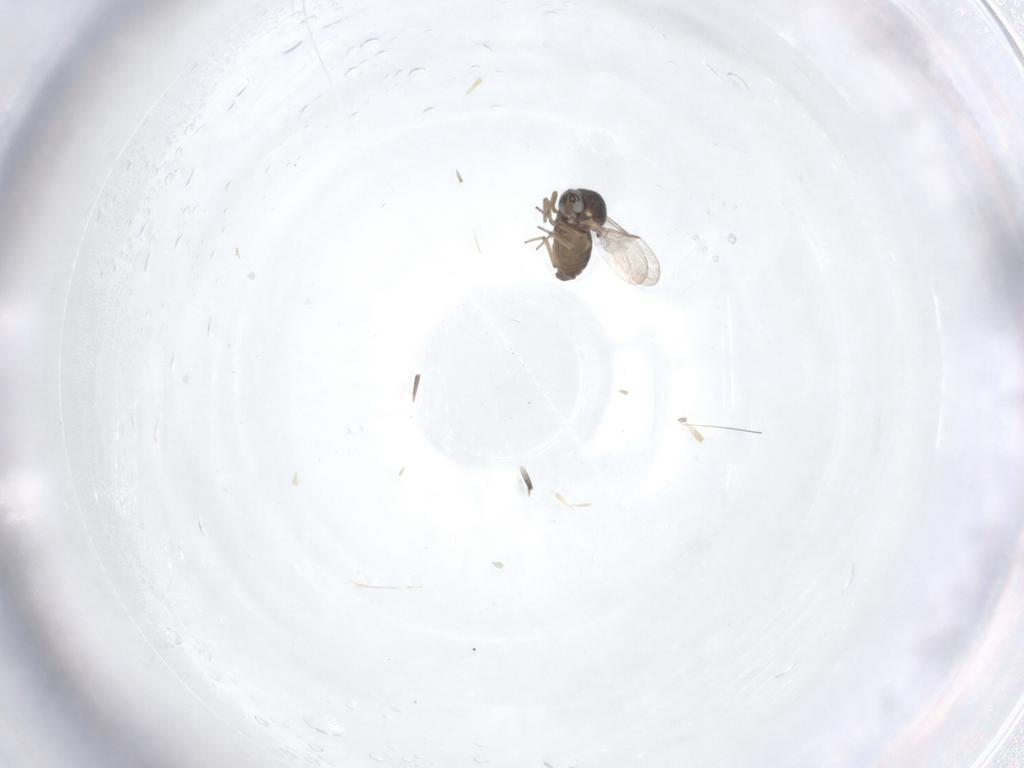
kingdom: Animalia
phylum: Arthropoda
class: Insecta
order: Diptera
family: Ceratopogonidae
